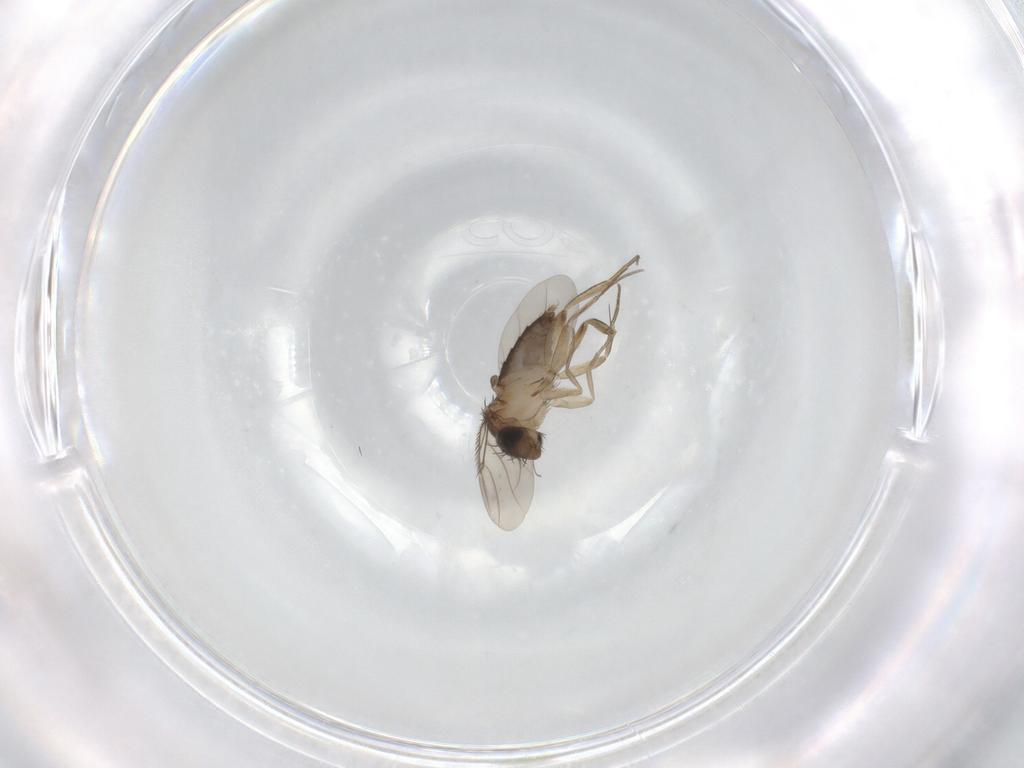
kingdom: Animalia
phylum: Arthropoda
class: Insecta
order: Diptera
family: Phoridae
